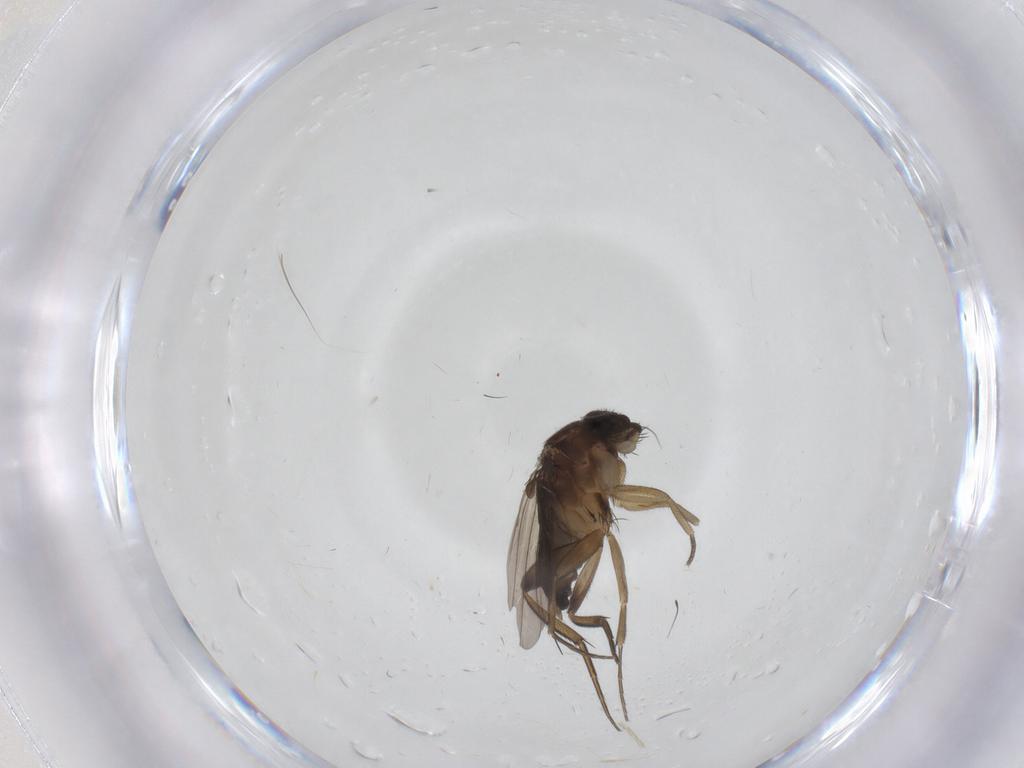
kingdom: Animalia
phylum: Arthropoda
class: Insecta
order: Diptera
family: Phoridae
